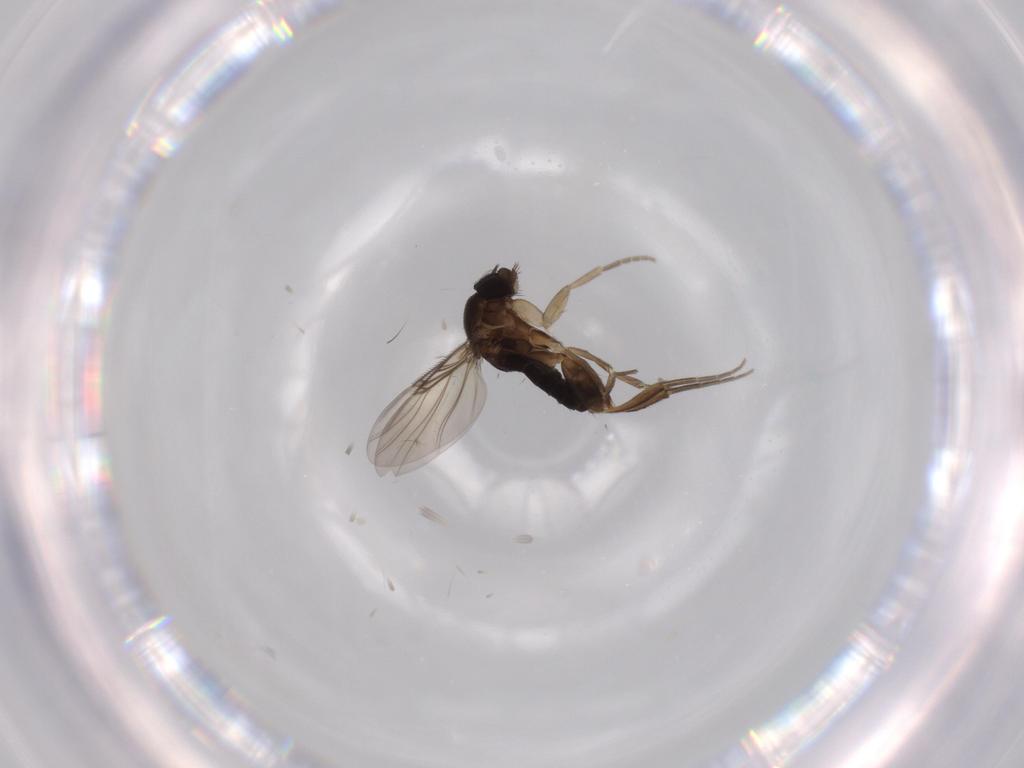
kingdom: Animalia
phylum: Arthropoda
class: Insecta
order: Diptera
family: Phoridae
